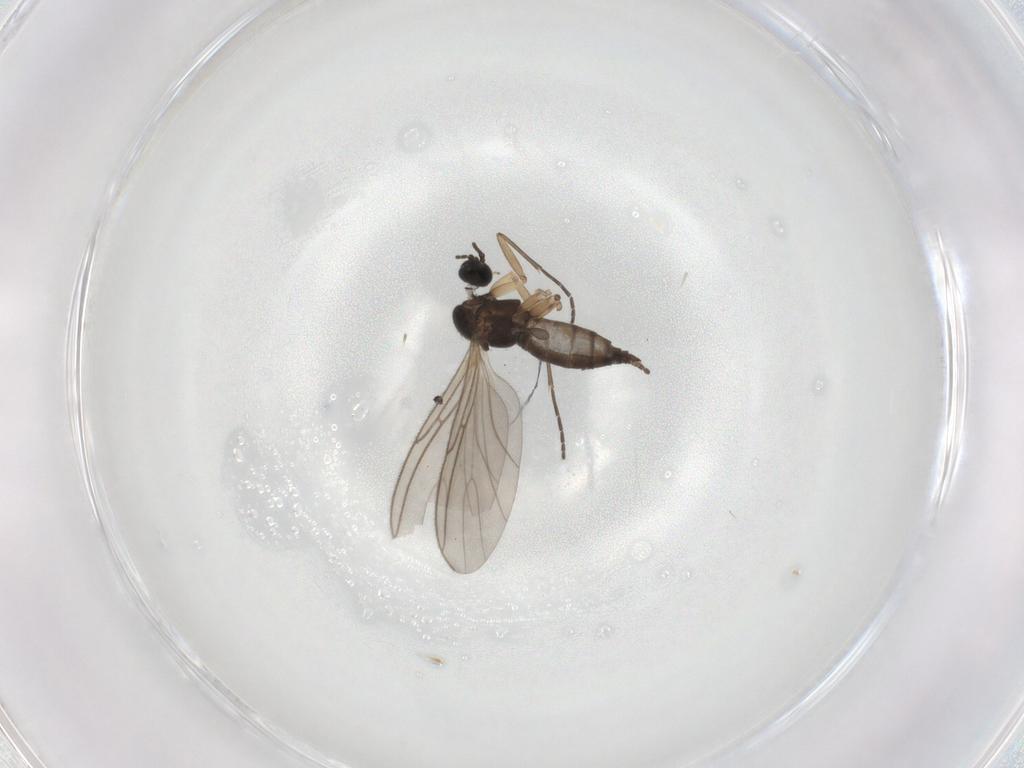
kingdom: Animalia
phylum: Arthropoda
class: Insecta
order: Diptera
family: Sciaridae
